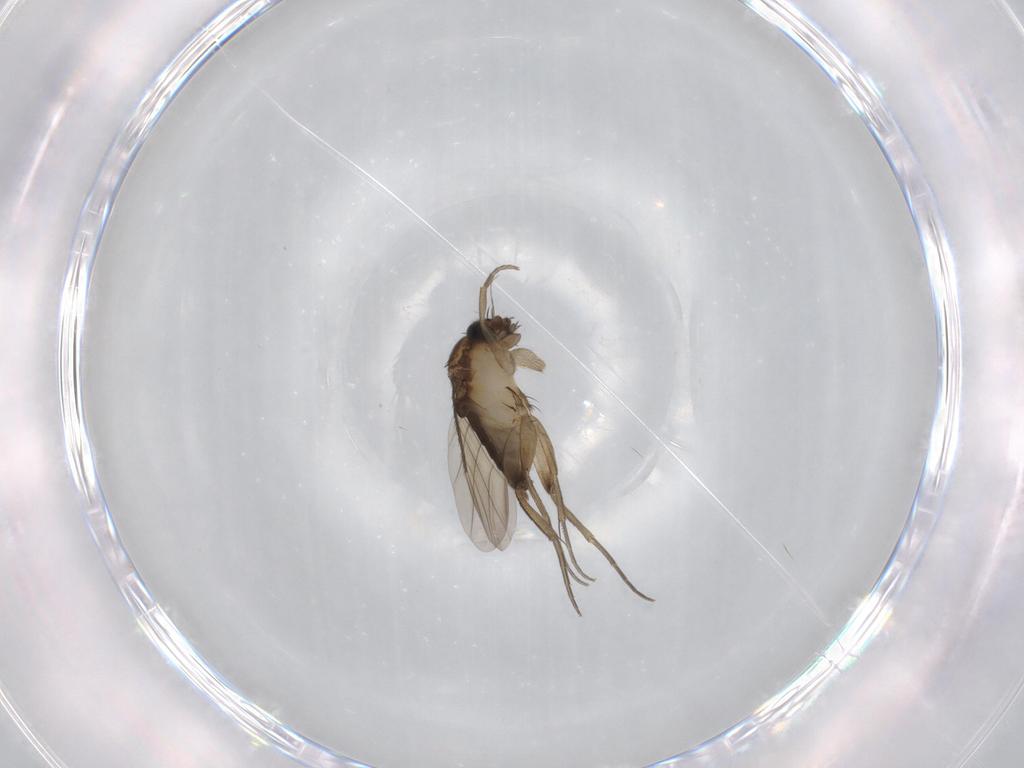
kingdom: Animalia
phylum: Arthropoda
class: Insecta
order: Diptera
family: Phoridae
